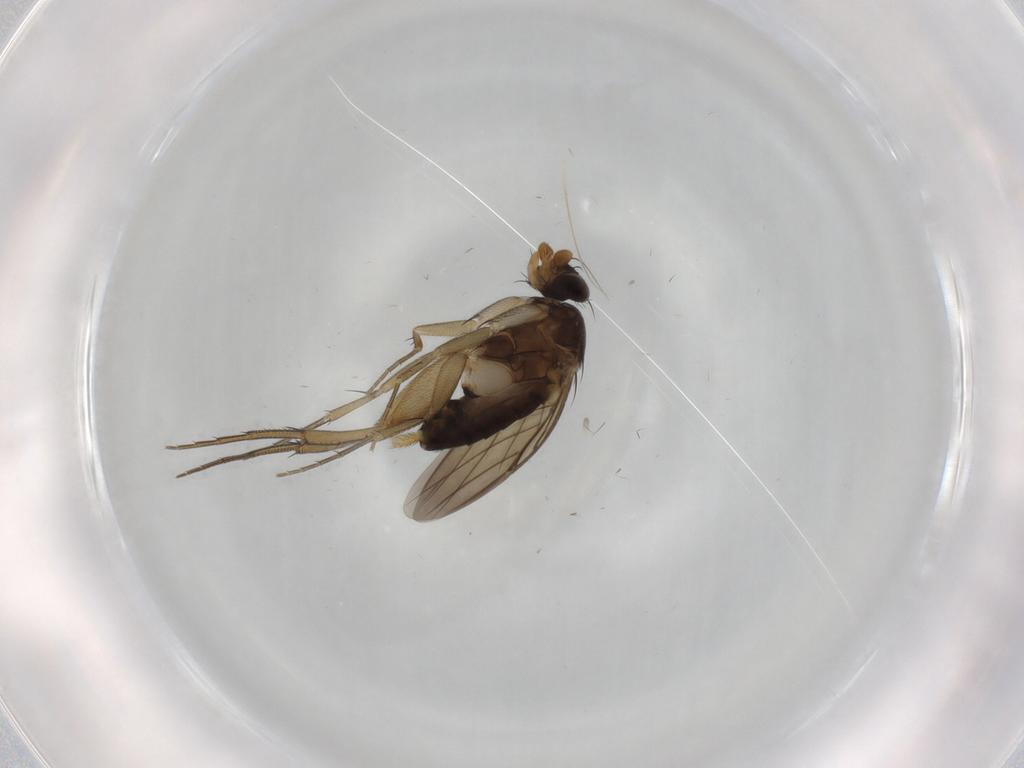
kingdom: Animalia
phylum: Arthropoda
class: Insecta
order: Diptera
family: Phoridae
